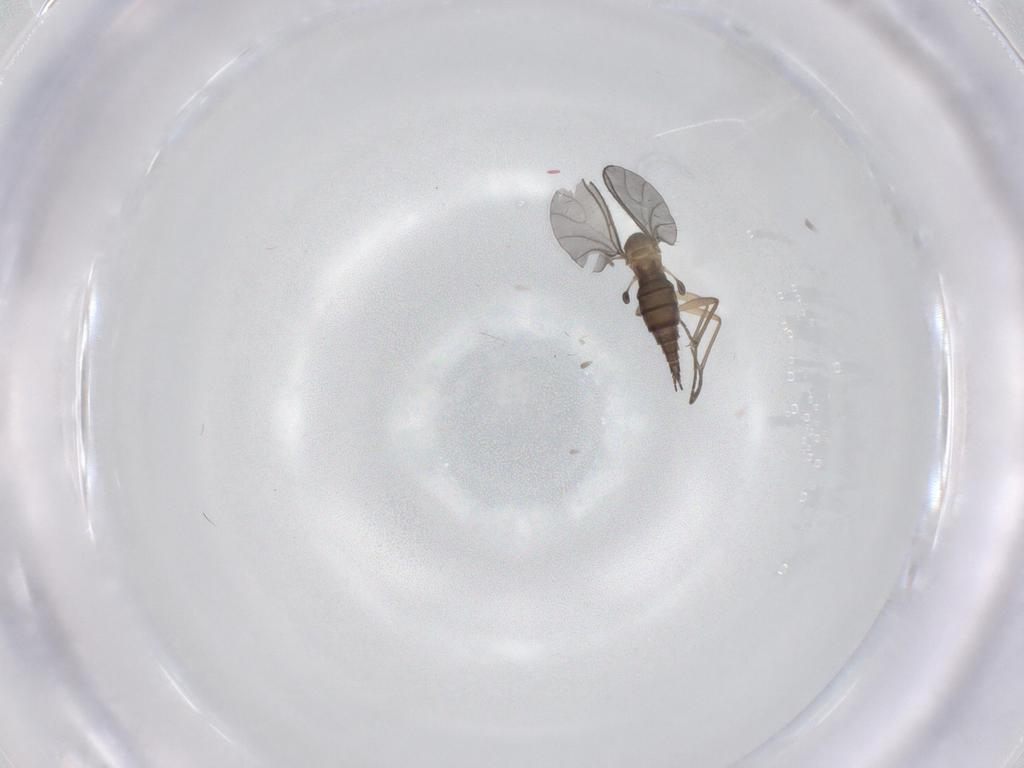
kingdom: Animalia
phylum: Arthropoda
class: Insecta
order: Diptera
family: Sciaridae
